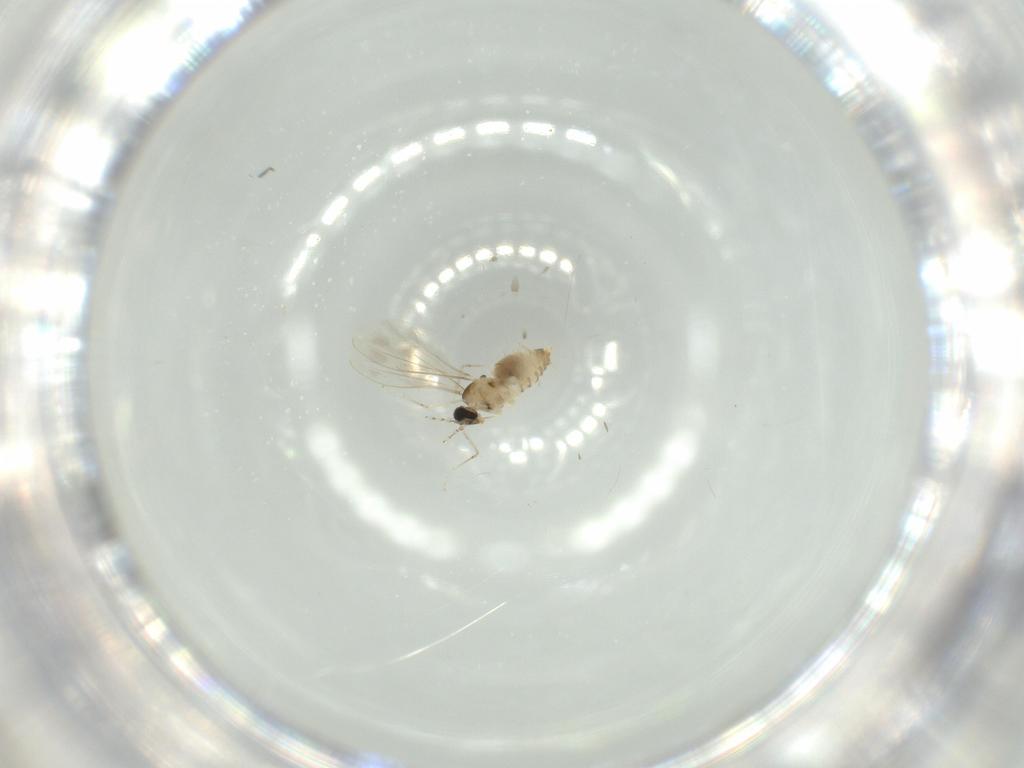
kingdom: Animalia
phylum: Arthropoda
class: Insecta
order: Diptera
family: Cecidomyiidae
